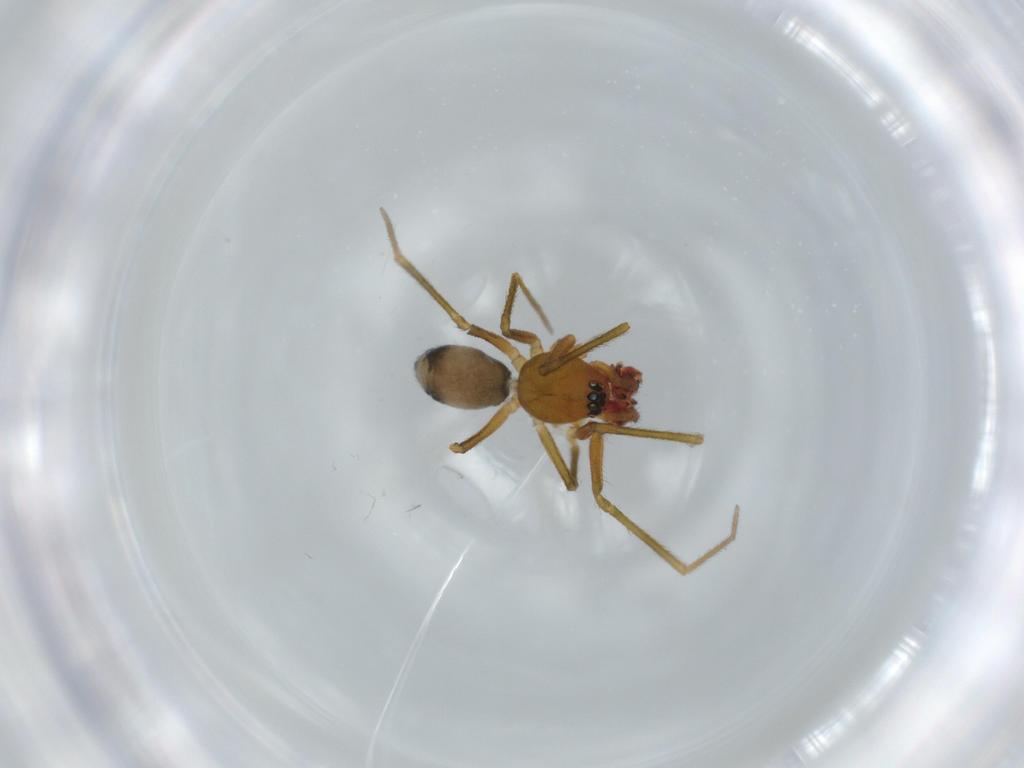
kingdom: Animalia
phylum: Arthropoda
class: Arachnida
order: Araneae
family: Linyphiidae
